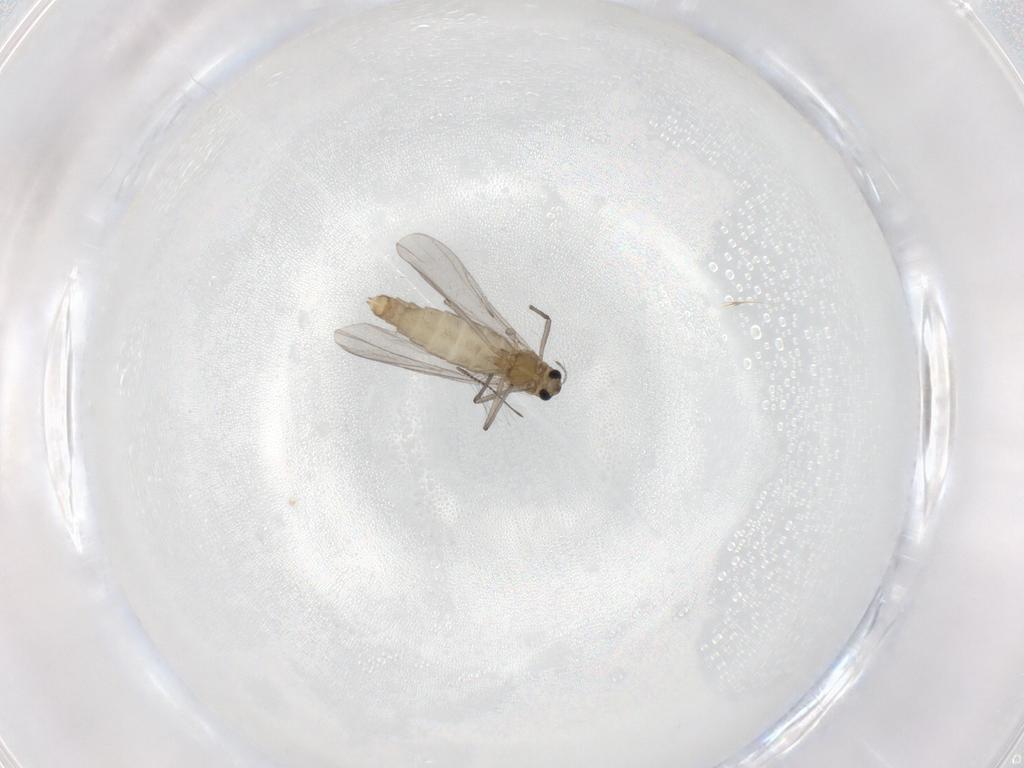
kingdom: Animalia
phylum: Arthropoda
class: Insecta
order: Diptera
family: Chironomidae
